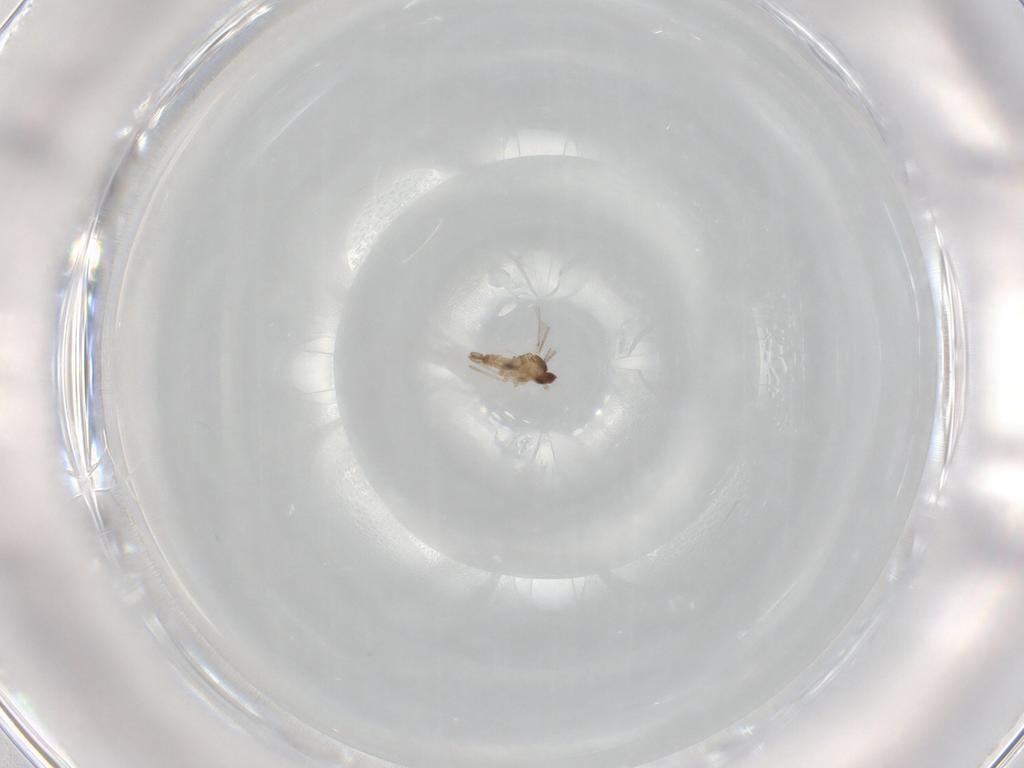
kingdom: Animalia
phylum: Arthropoda
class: Insecta
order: Diptera
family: Cecidomyiidae
